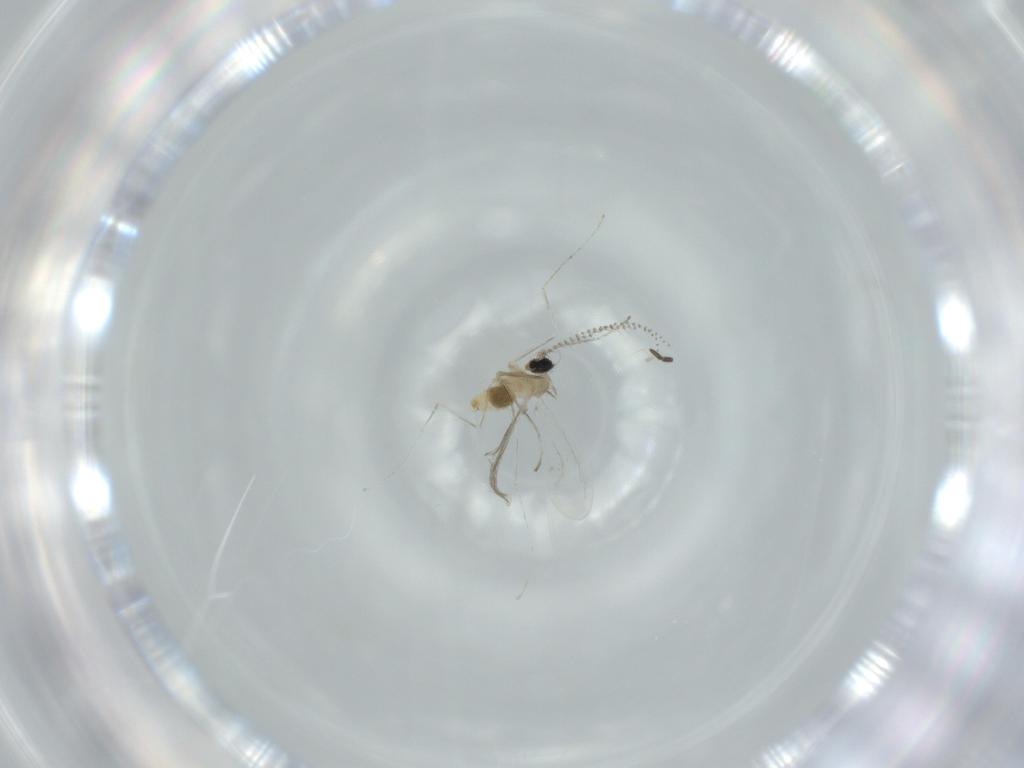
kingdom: Animalia
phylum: Arthropoda
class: Insecta
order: Diptera
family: Cecidomyiidae
